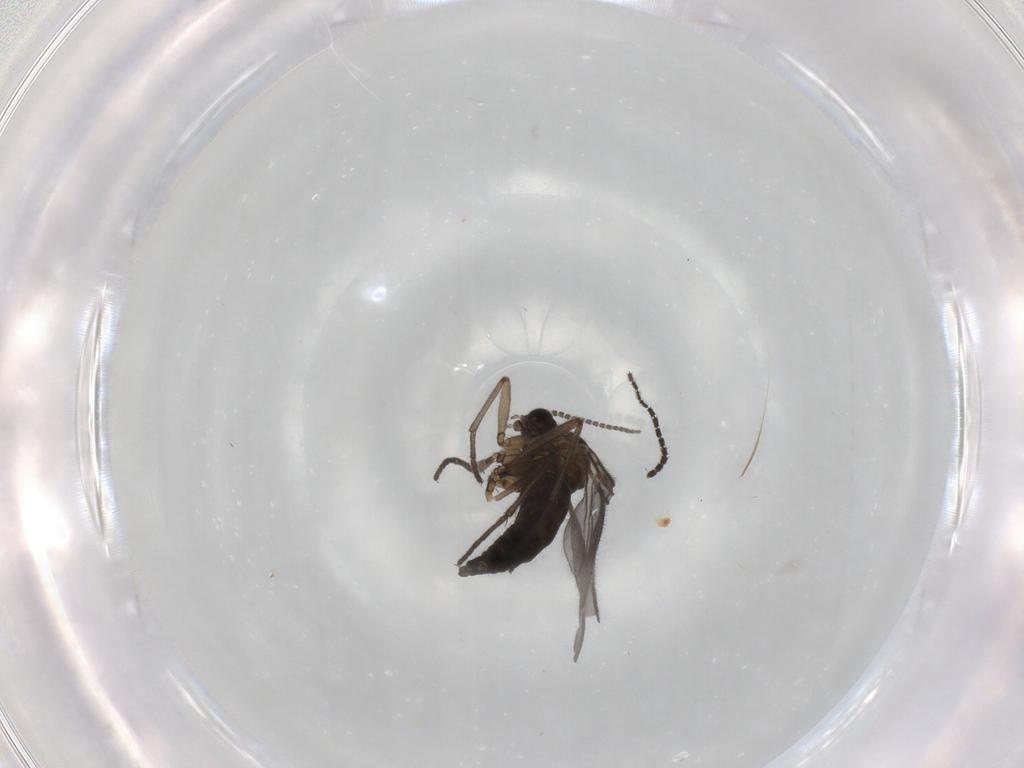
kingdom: Animalia
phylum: Arthropoda
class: Insecta
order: Diptera
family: Sciaridae
